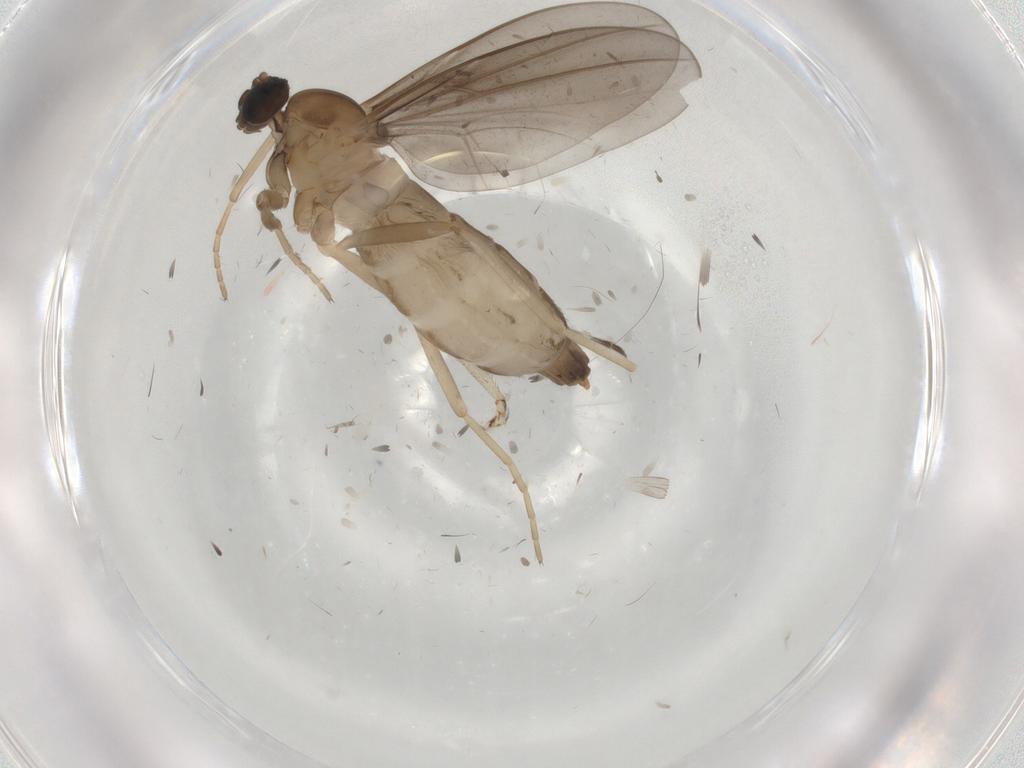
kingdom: Animalia
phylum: Arthropoda
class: Insecta
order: Diptera
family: Cecidomyiidae
